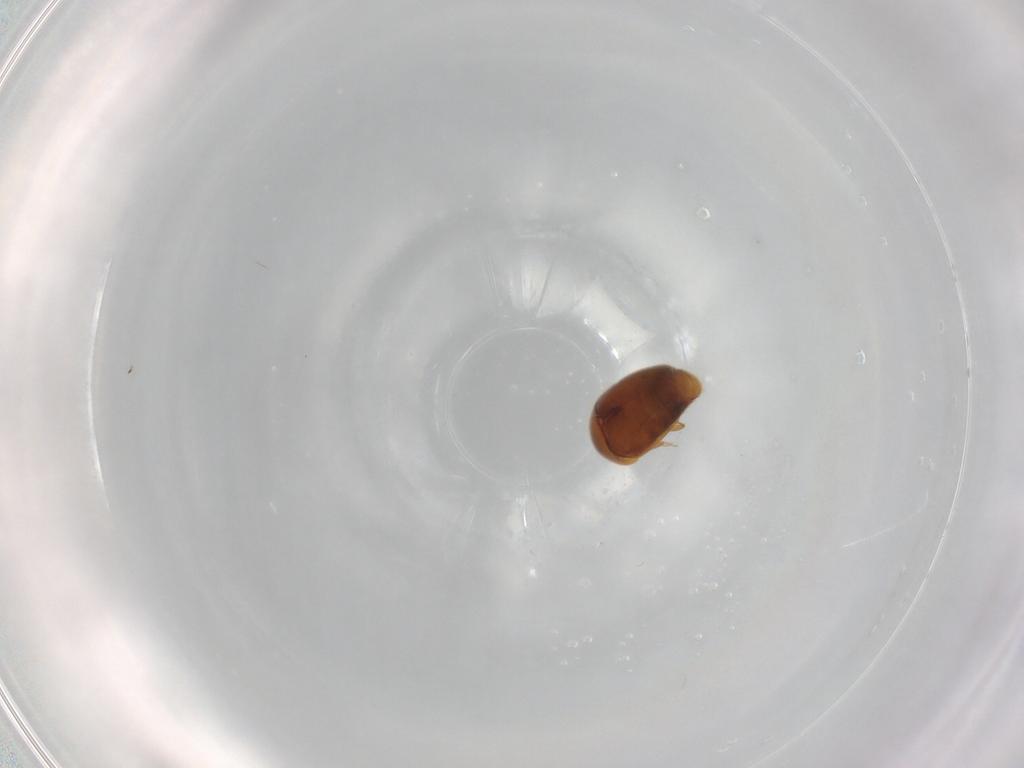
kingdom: Animalia
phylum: Arthropoda
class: Insecta
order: Coleoptera
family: Corylophidae
